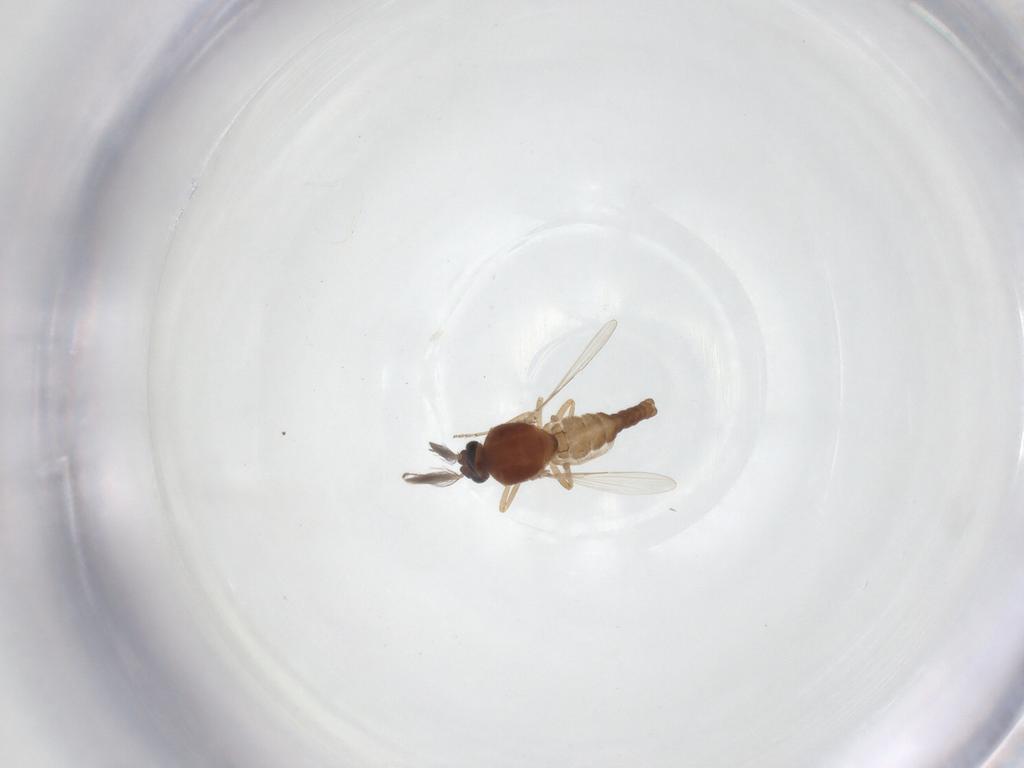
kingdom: Animalia
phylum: Arthropoda
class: Insecta
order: Diptera
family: Ceratopogonidae
